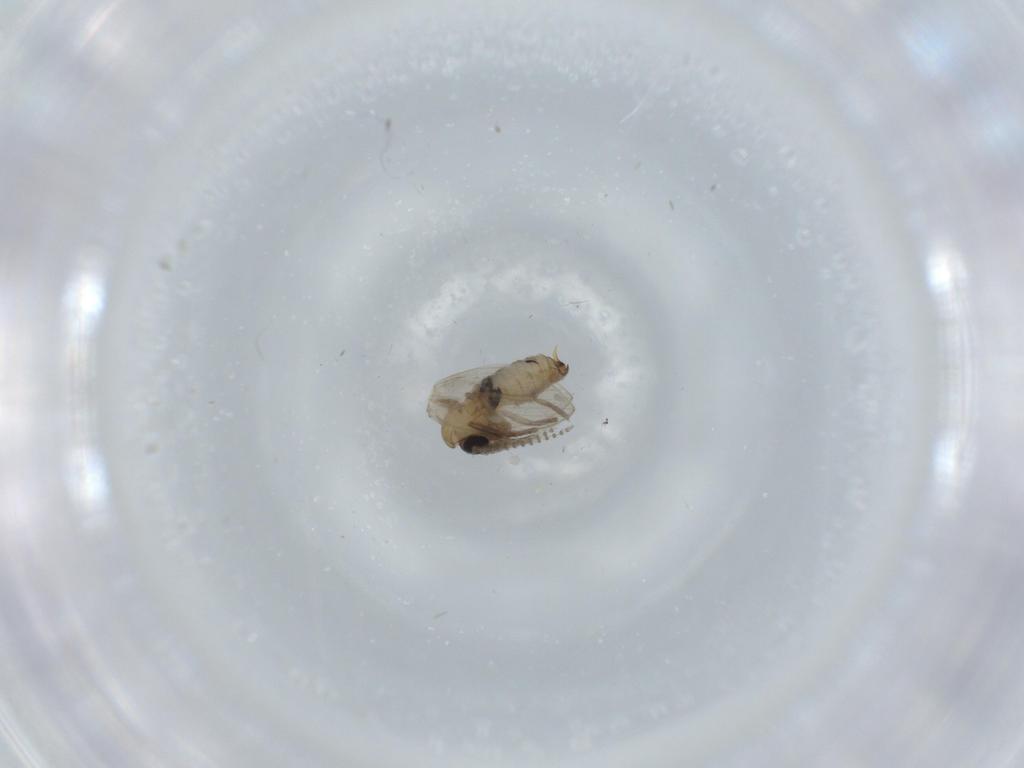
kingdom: Animalia
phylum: Arthropoda
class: Insecta
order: Diptera
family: Psychodidae
